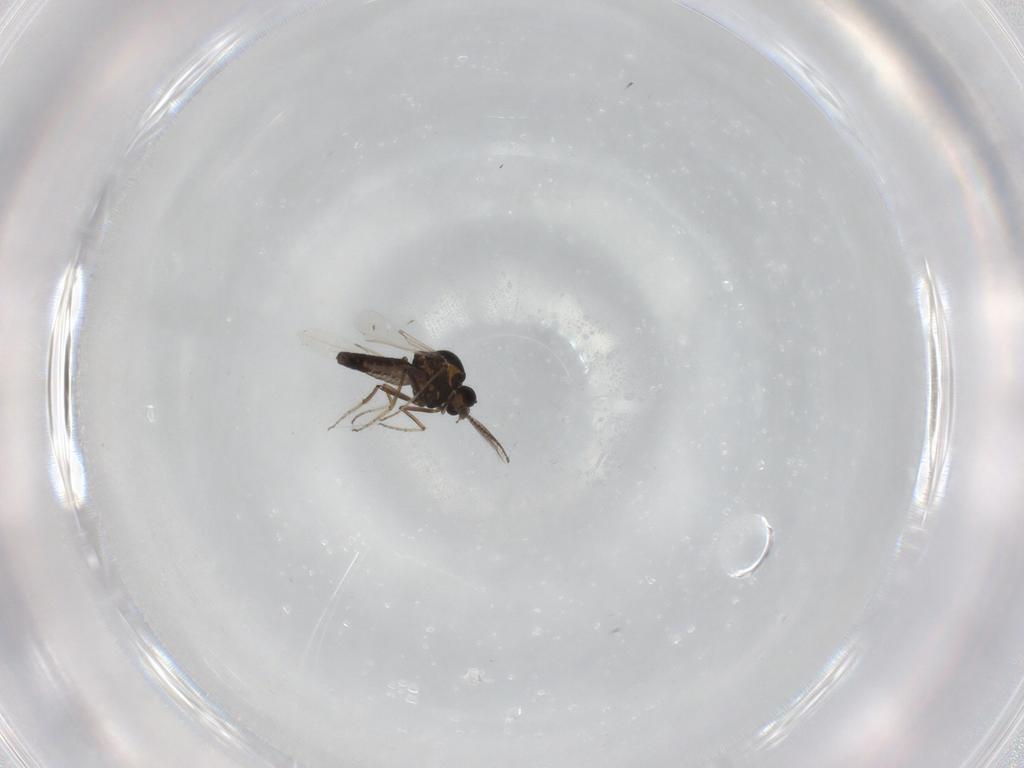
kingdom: Animalia
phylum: Arthropoda
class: Insecta
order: Diptera
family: Ceratopogonidae
